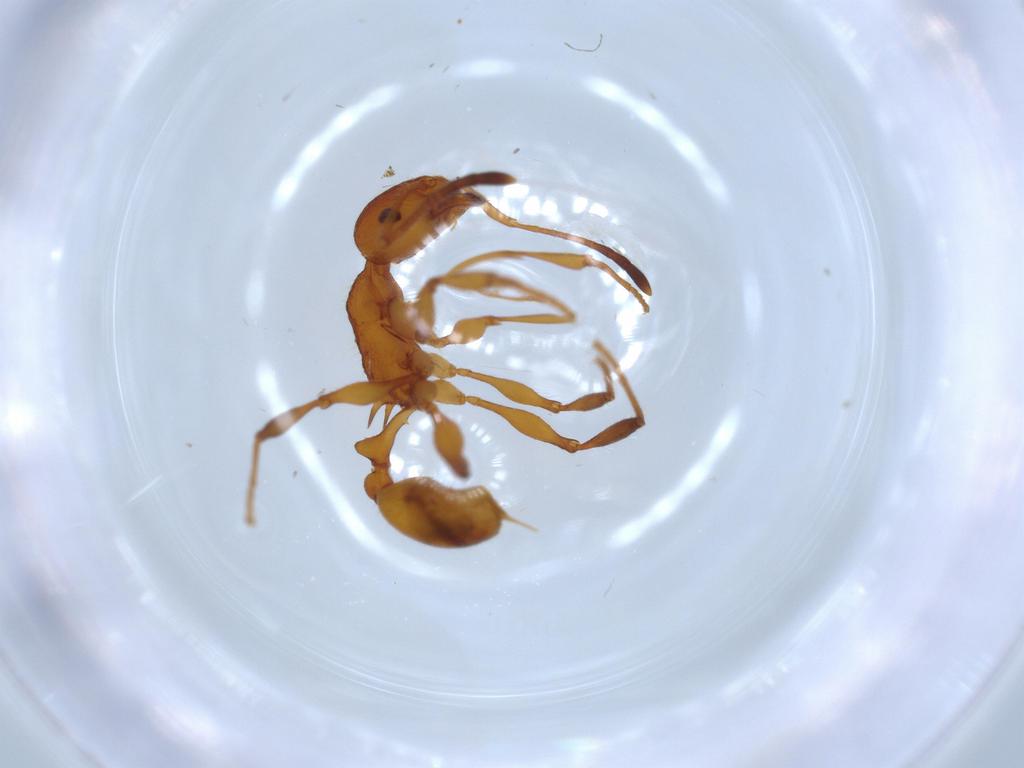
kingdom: Animalia
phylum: Arthropoda
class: Insecta
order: Hymenoptera
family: Formicidae
